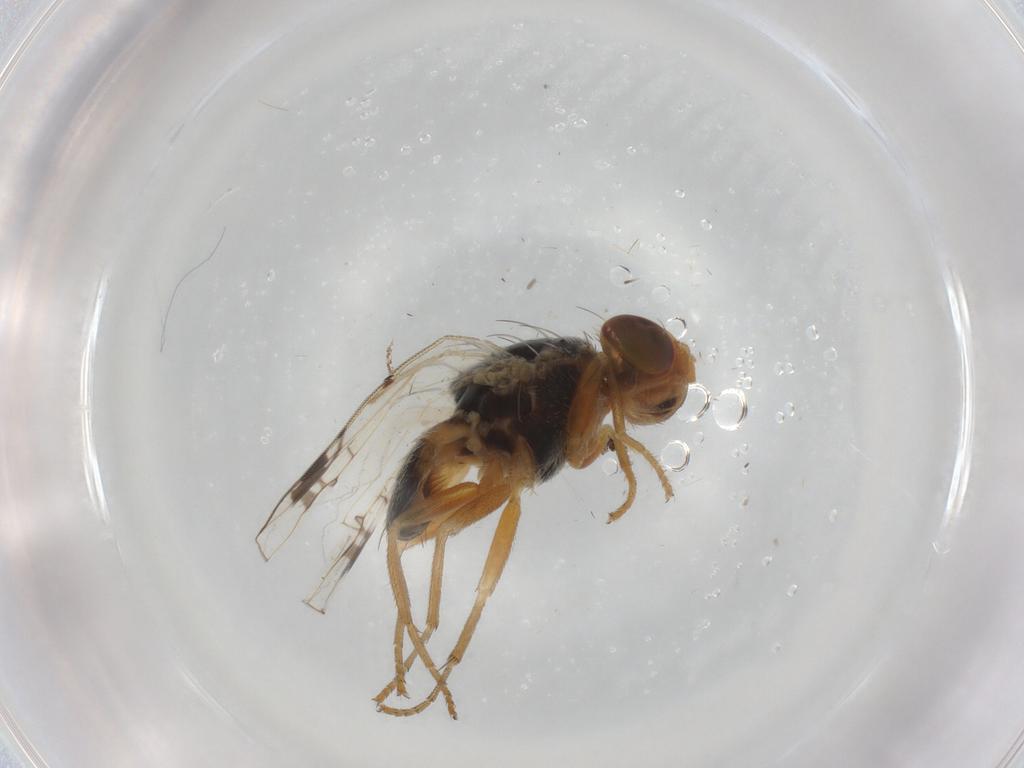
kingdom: Animalia
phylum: Arthropoda
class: Insecta
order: Diptera
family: Tephritidae
